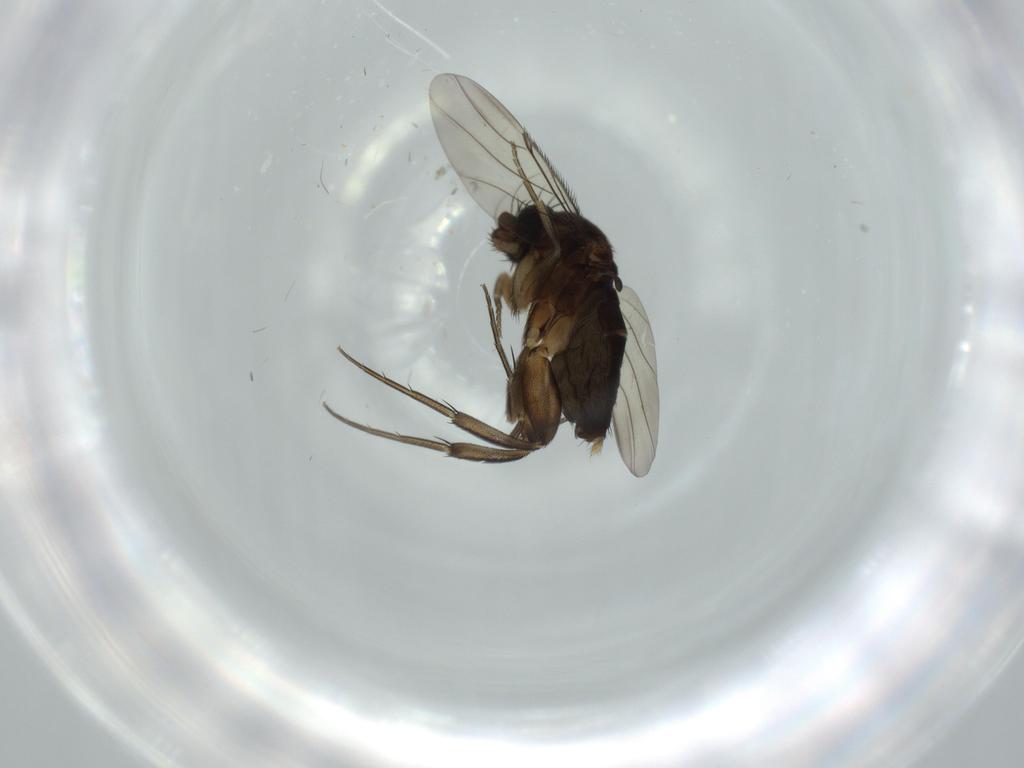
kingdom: Animalia
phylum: Arthropoda
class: Insecta
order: Diptera
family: Phoridae
